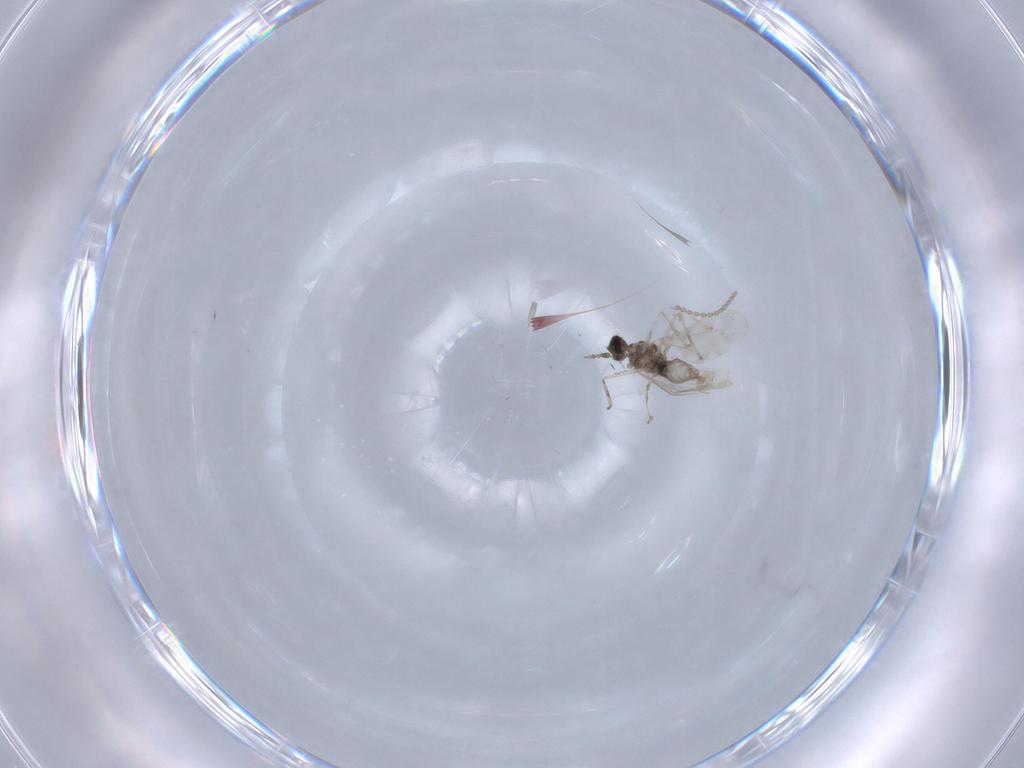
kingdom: Animalia
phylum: Arthropoda
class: Insecta
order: Diptera
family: Cecidomyiidae
